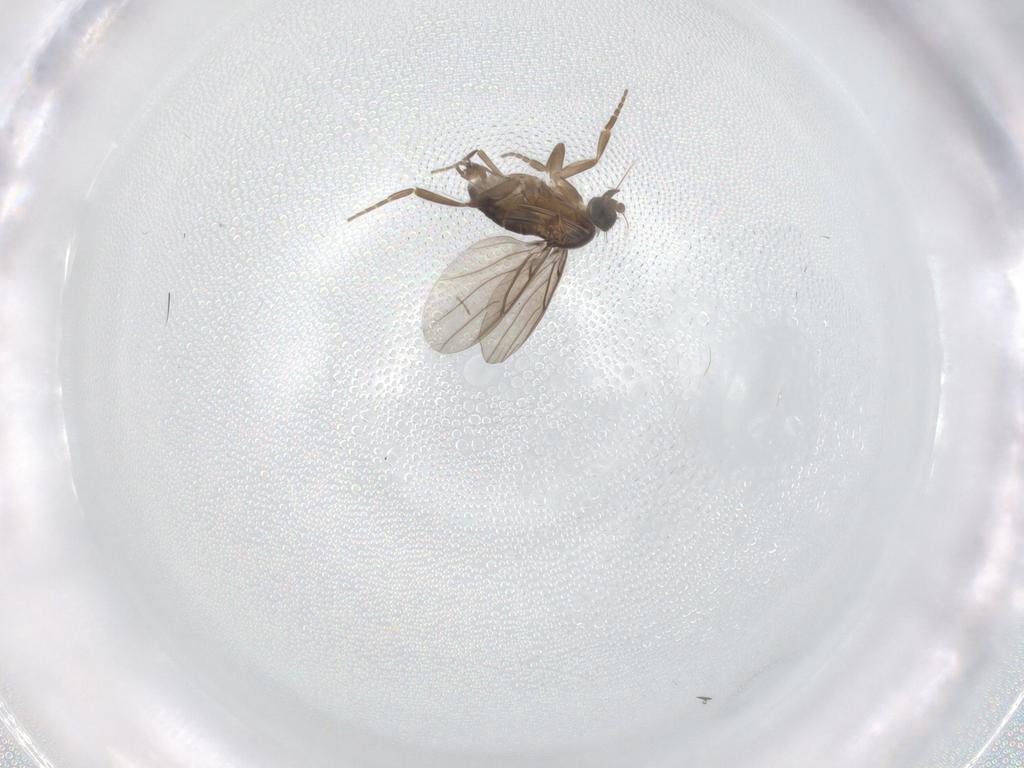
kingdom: Animalia
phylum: Arthropoda
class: Insecta
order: Diptera
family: Phoridae
